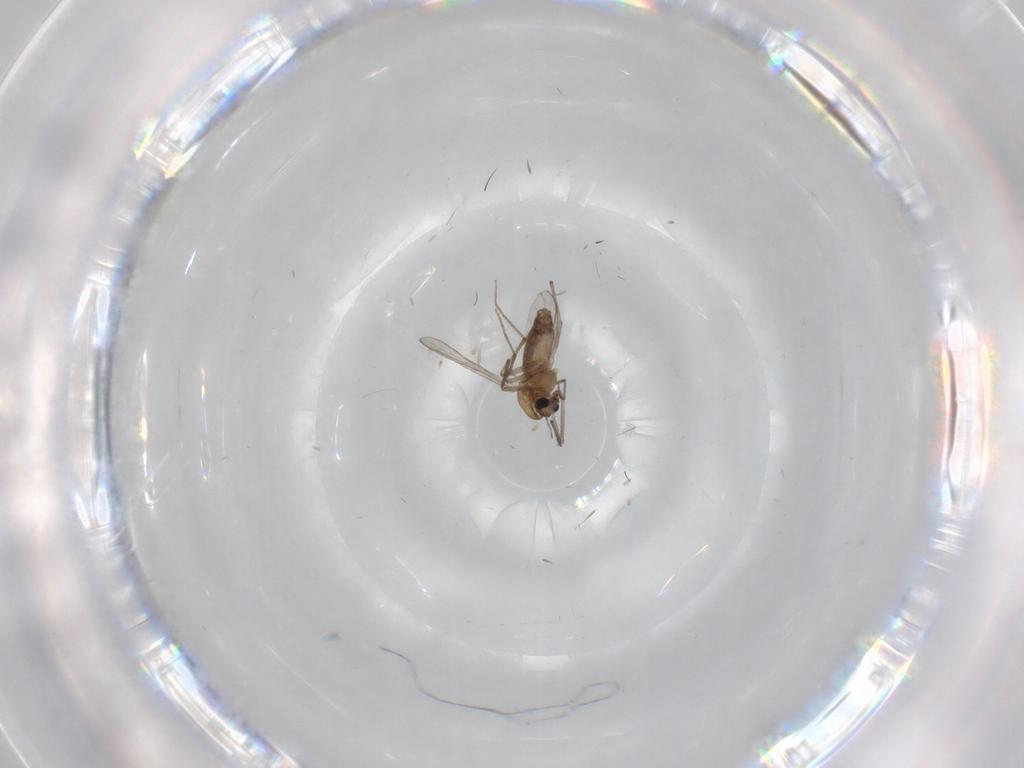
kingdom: Animalia
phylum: Arthropoda
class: Insecta
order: Diptera
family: Chironomidae
